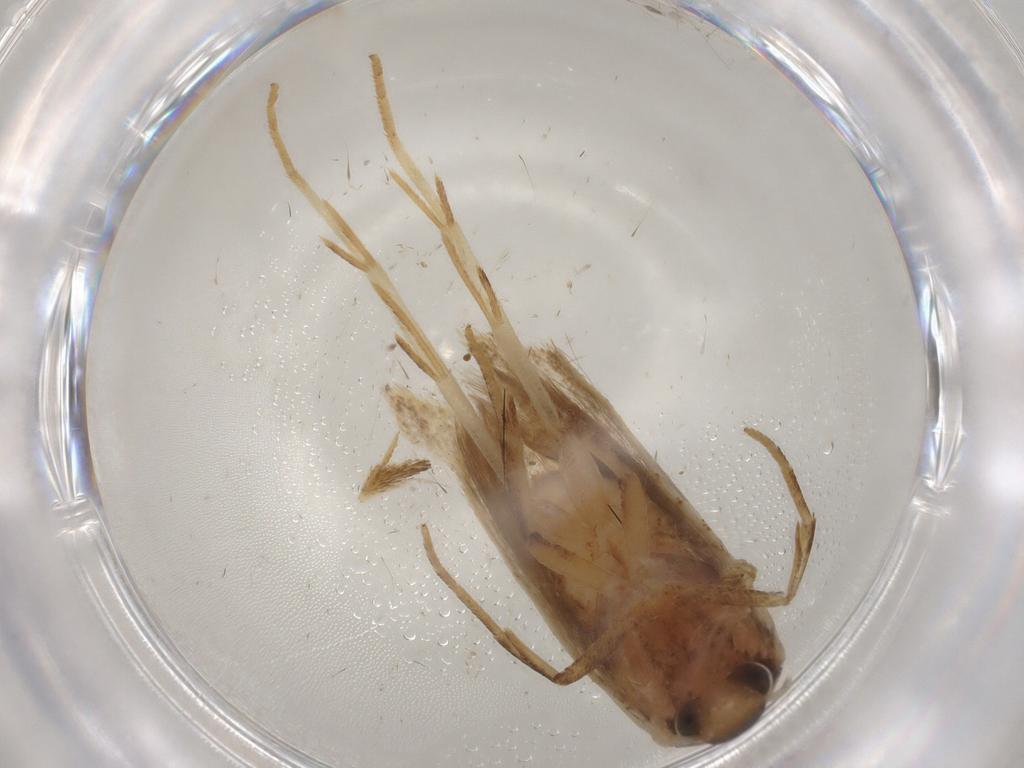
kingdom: Animalia
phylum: Arthropoda
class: Insecta
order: Lepidoptera
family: Gelechiidae
